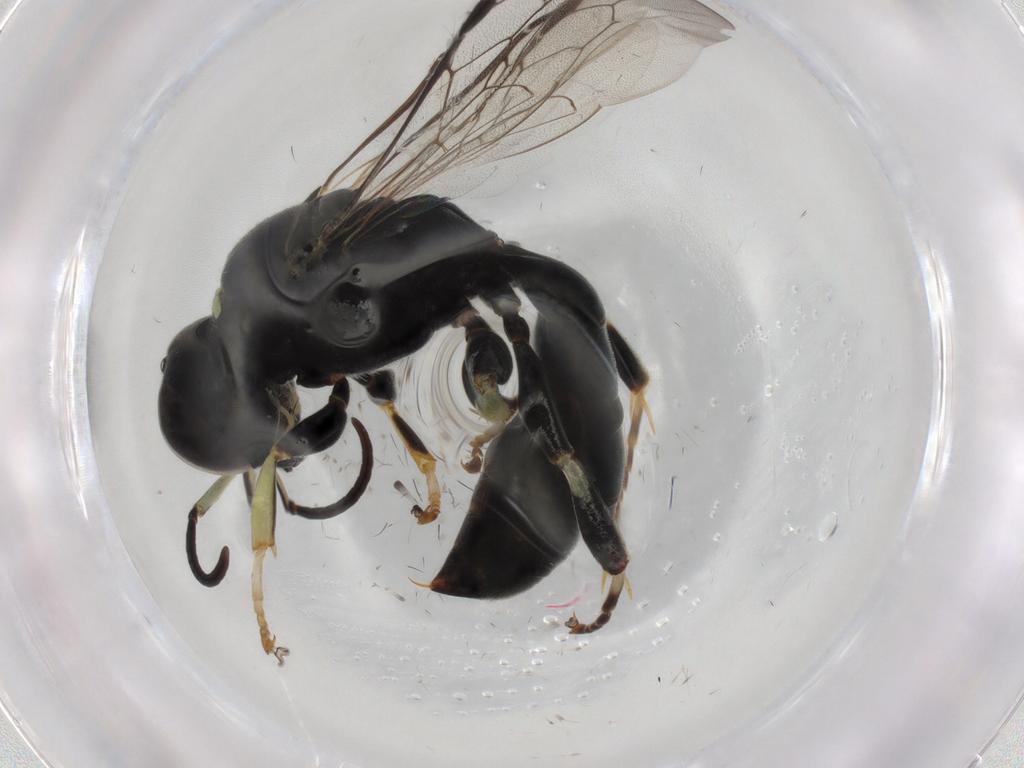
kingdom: Animalia
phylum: Arthropoda
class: Insecta
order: Hymenoptera
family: Crabronidae
